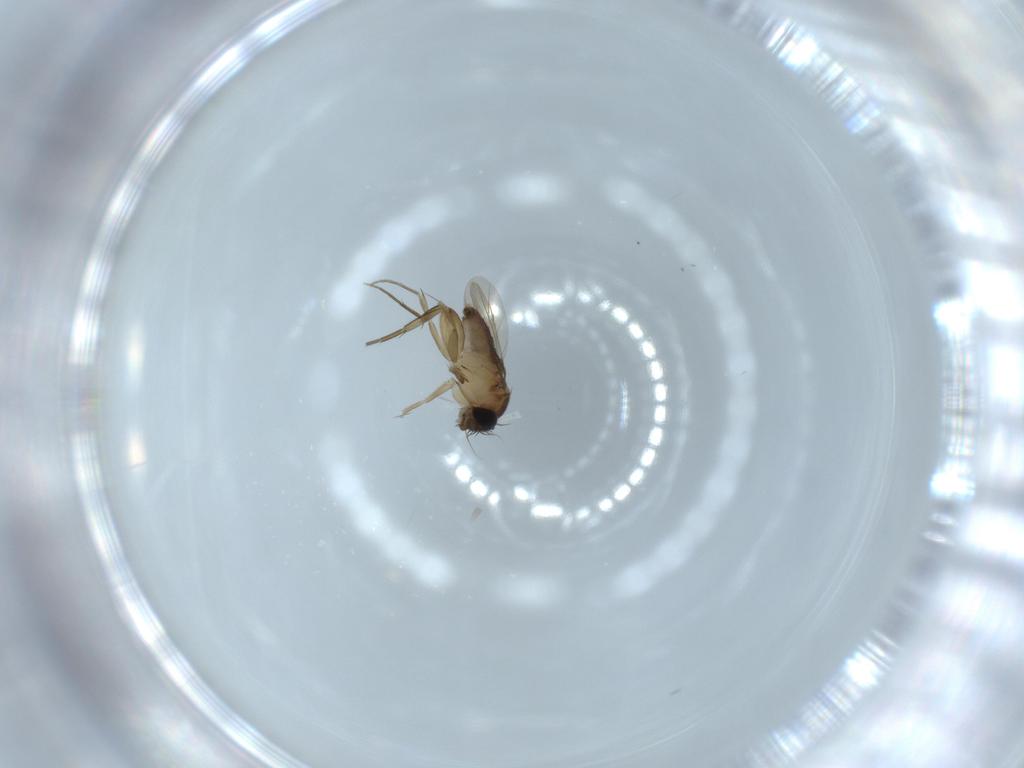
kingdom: Animalia
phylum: Arthropoda
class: Insecta
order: Diptera
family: Phoridae
